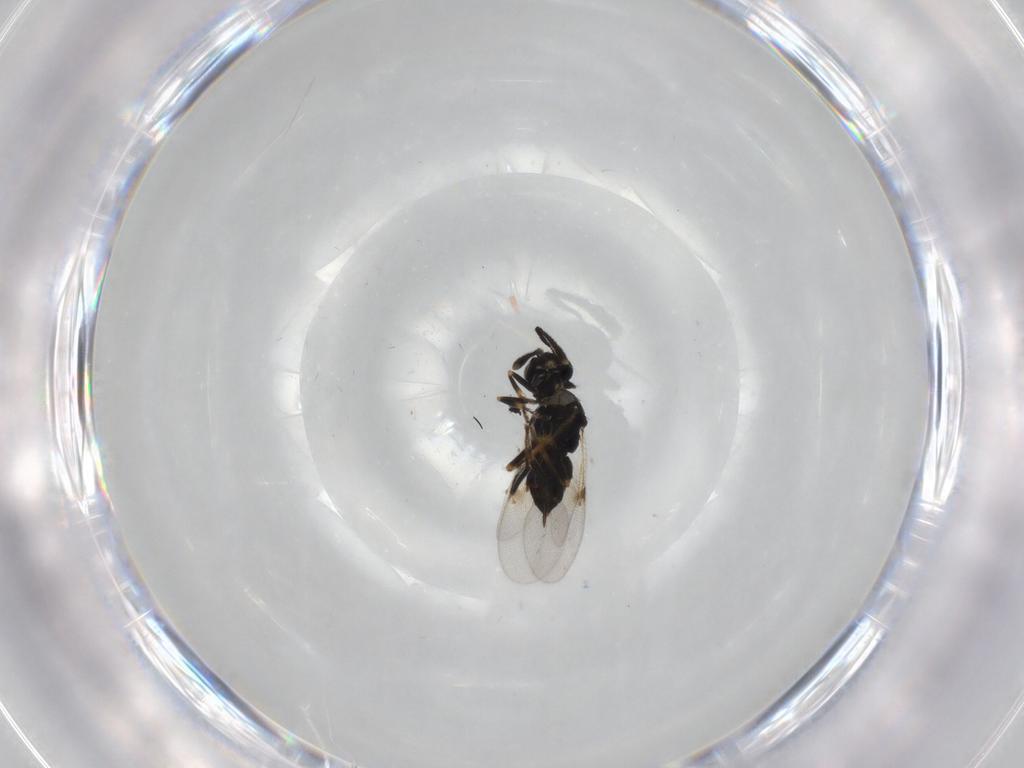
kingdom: Animalia
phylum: Arthropoda
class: Insecta
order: Hymenoptera
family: Encyrtidae
